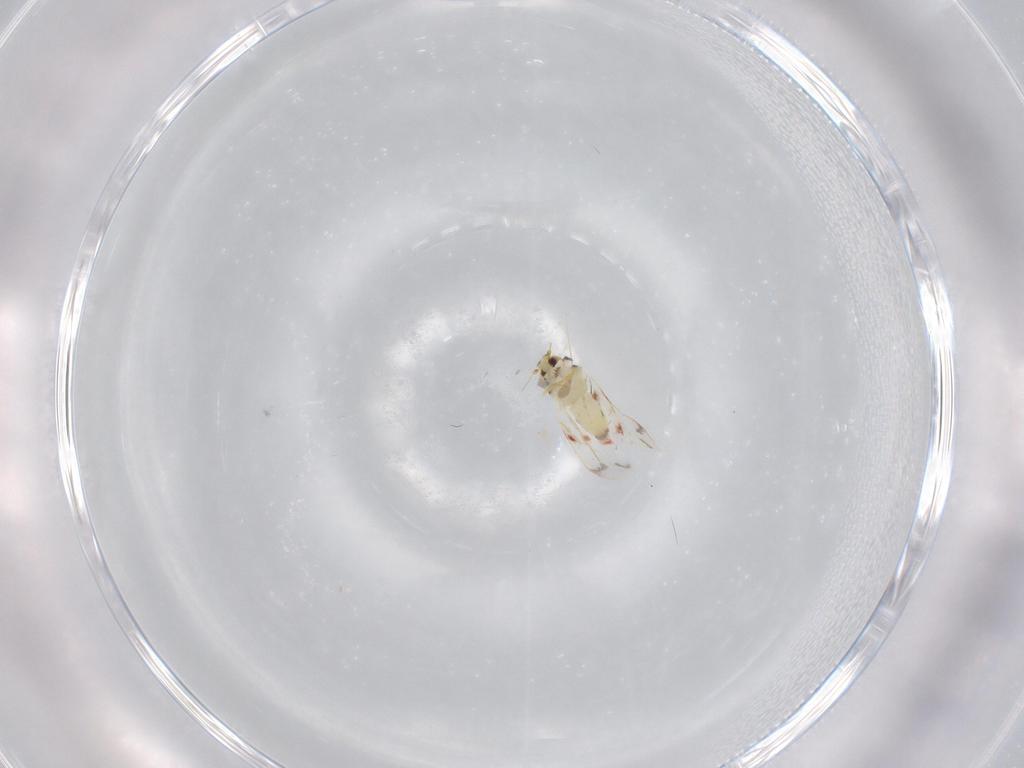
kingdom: Animalia
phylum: Arthropoda
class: Insecta
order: Hemiptera
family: Aleyrodidae
